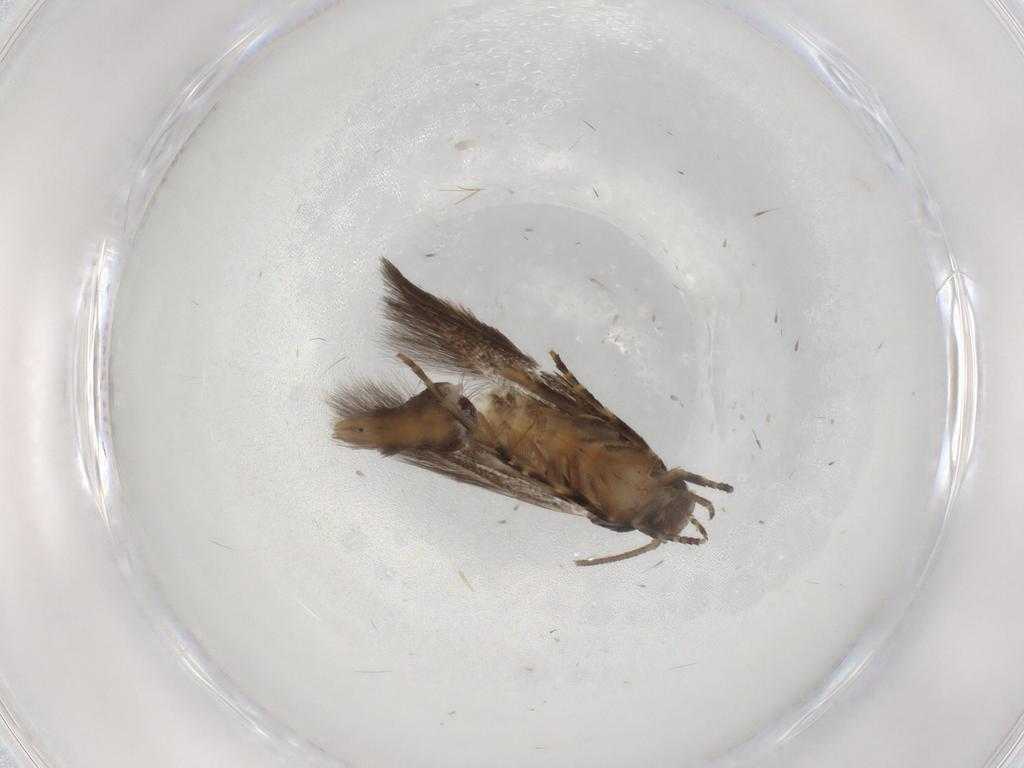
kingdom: Animalia
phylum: Arthropoda
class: Insecta
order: Lepidoptera
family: Elachistidae
